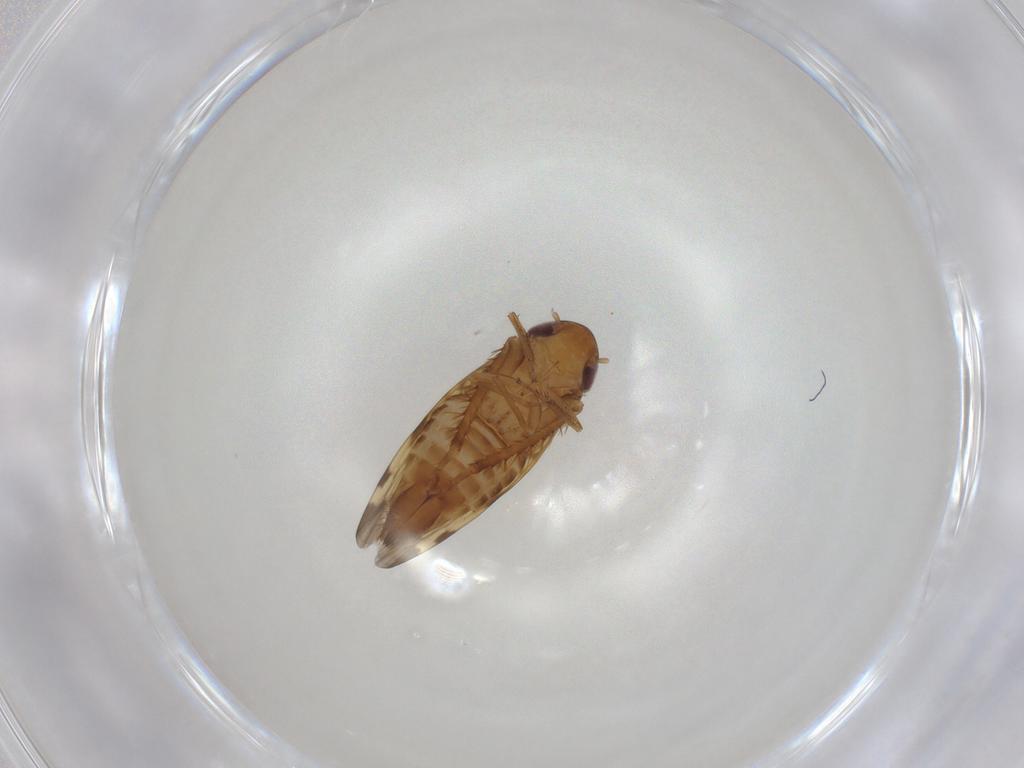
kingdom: Animalia
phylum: Arthropoda
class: Insecta
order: Hemiptera
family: Cicadellidae
